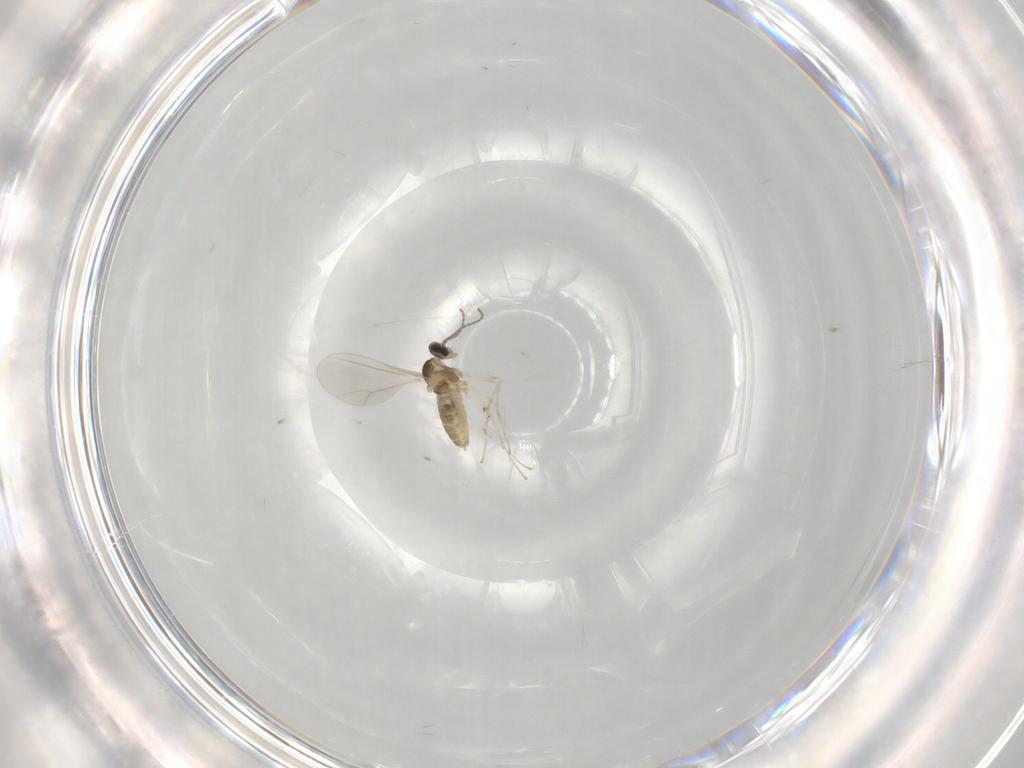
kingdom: Animalia
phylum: Arthropoda
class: Insecta
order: Diptera
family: Cecidomyiidae
